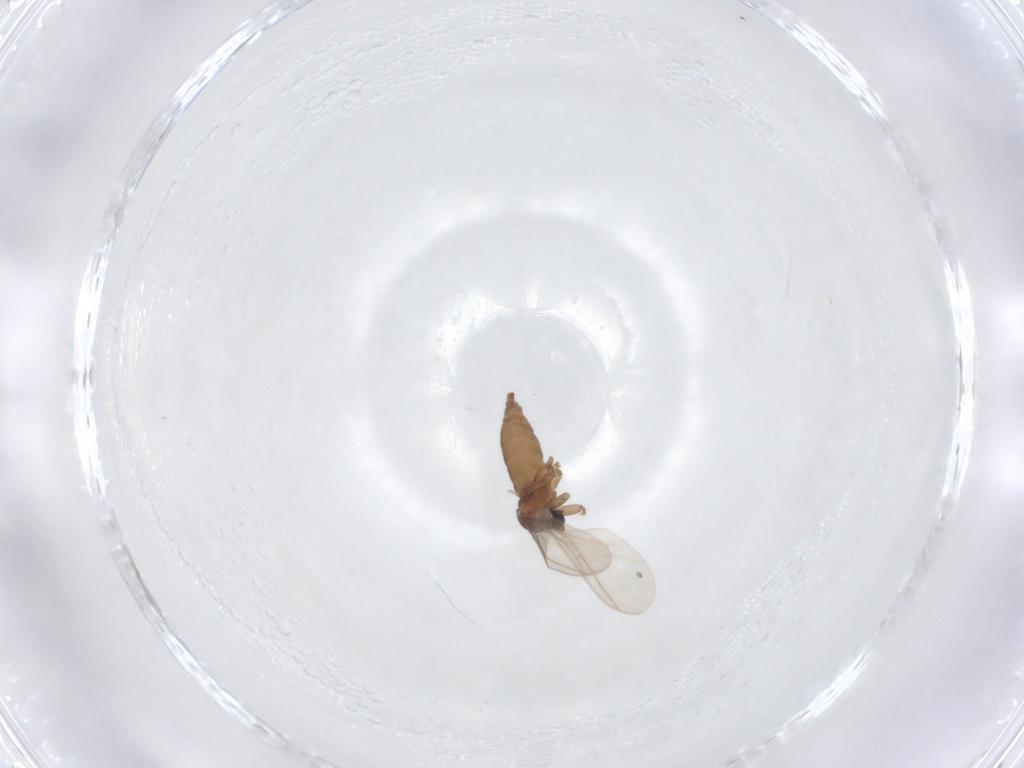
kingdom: Animalia
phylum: Arthropoda
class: Insecta
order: Diptera
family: Sciaridae
